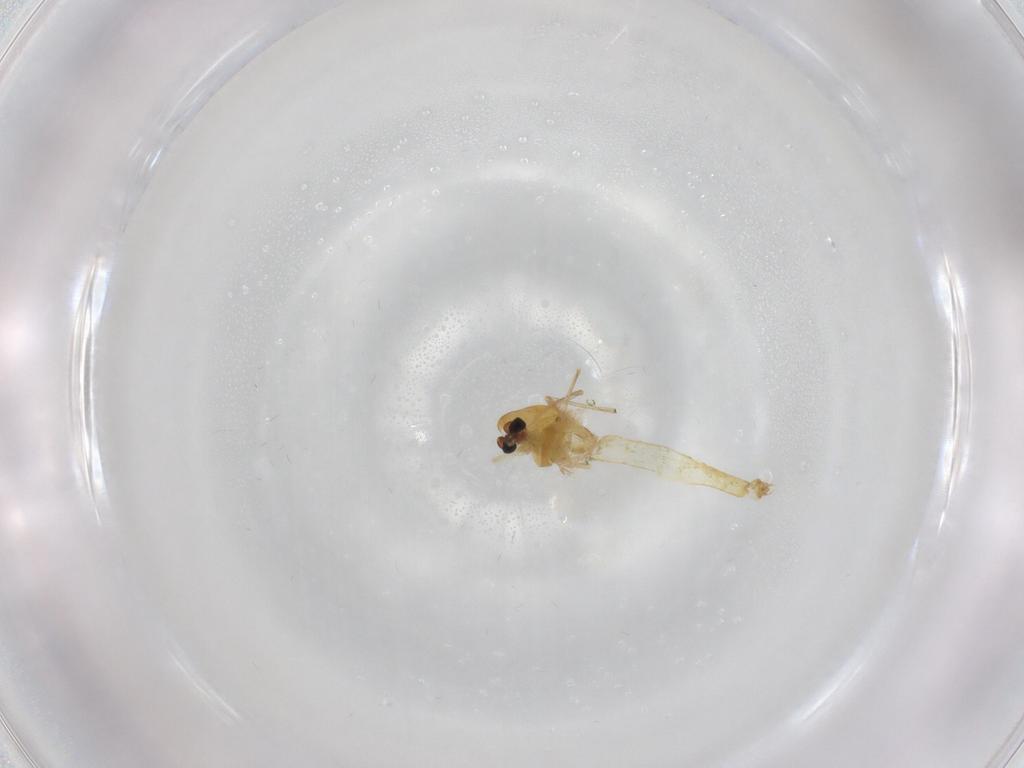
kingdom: Animalia
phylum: Arthropoda
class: Insecta
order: Diptera
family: Chironomidae
